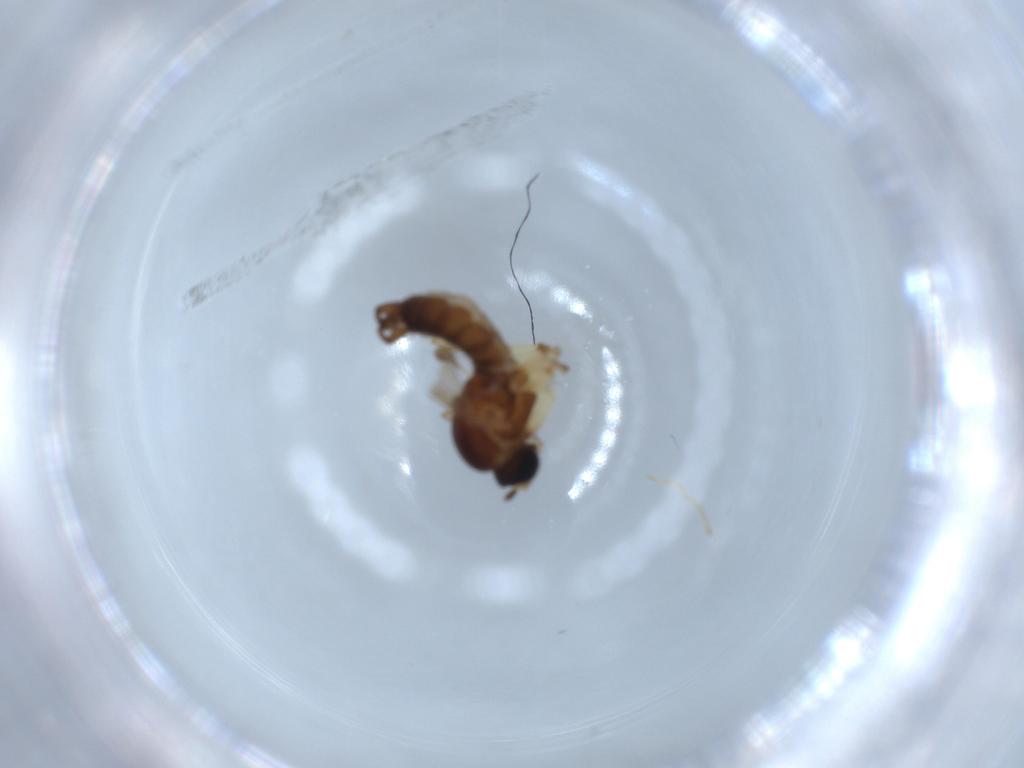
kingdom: Animalia
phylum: Arthropoda
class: Insecta
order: Diptera
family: Sciaridae
